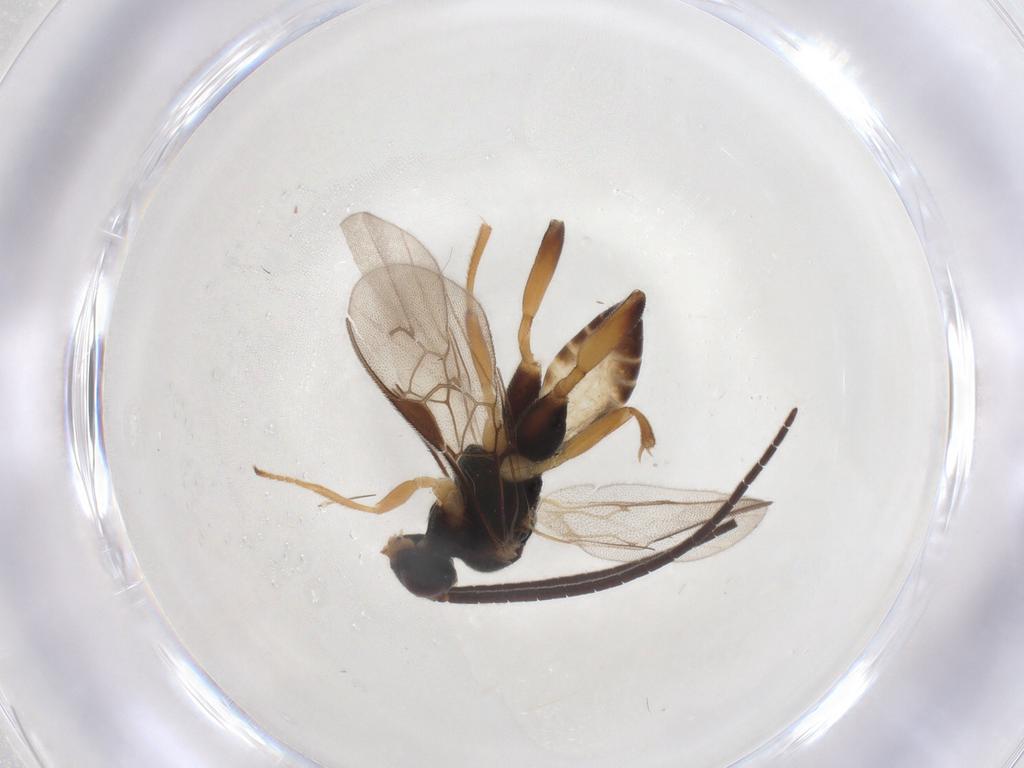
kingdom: Animalia
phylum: Arthropoda
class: Insecta
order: Hymenoptera
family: Braconidae
